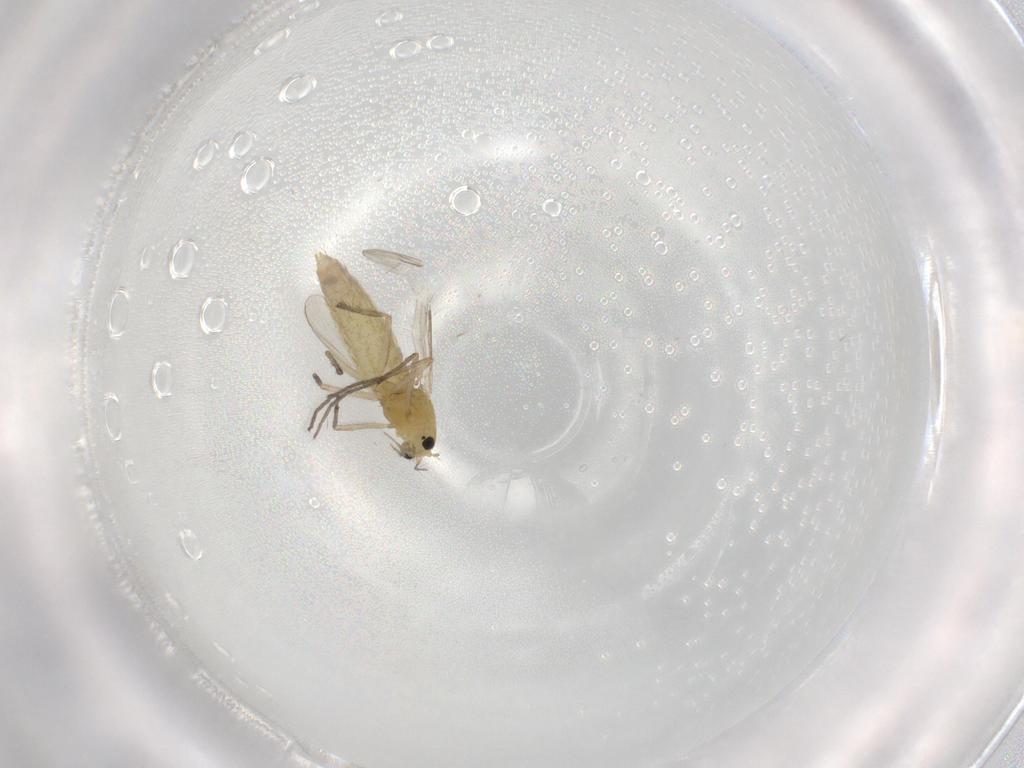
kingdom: Animalia
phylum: Arthropoda
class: Insecta
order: Diptera
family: Chironomidae
